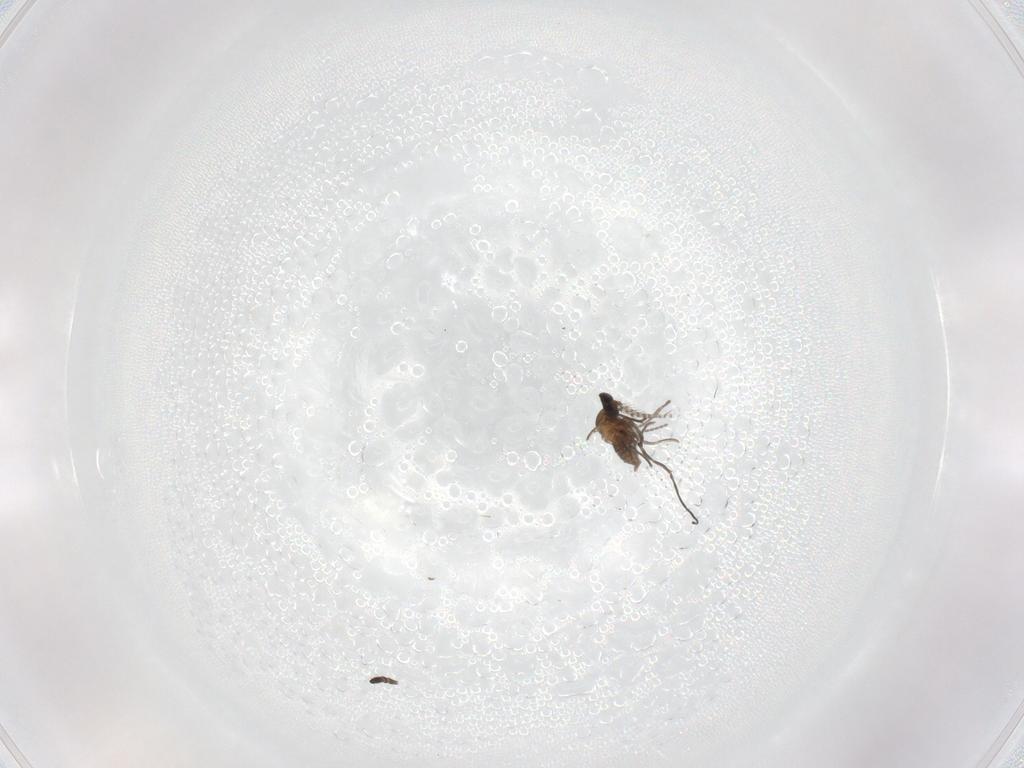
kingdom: Animalia
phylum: Arthropoda
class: Insecta
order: Diptera
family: Cecidomyiidae
